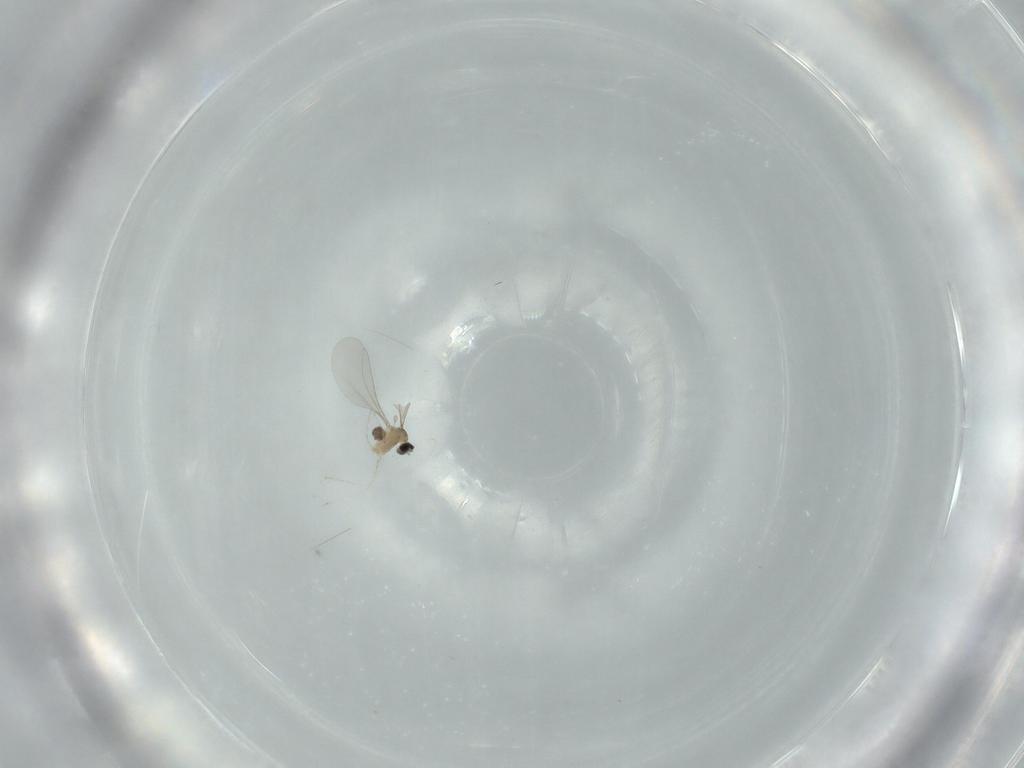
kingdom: Animalia
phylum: Arthropoda
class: Insecta
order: Diptera
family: Cecidomyiidae
